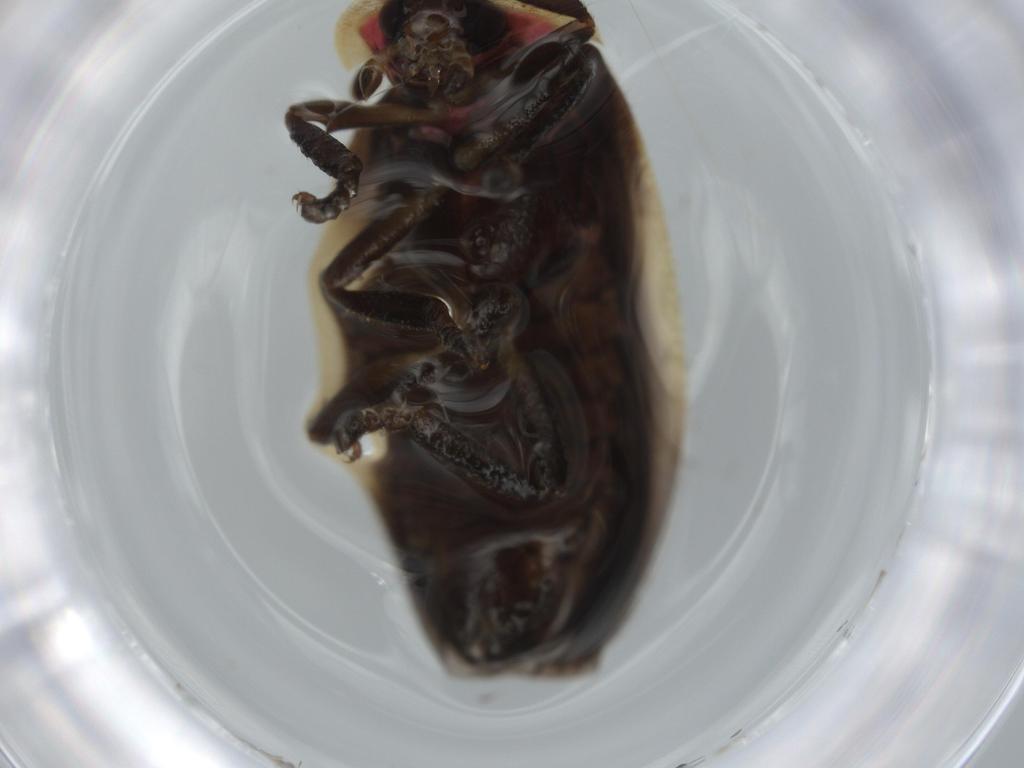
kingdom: Animalia
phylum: Arthropoda
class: Insecta
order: Coleoptera
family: Chrysomelidae
